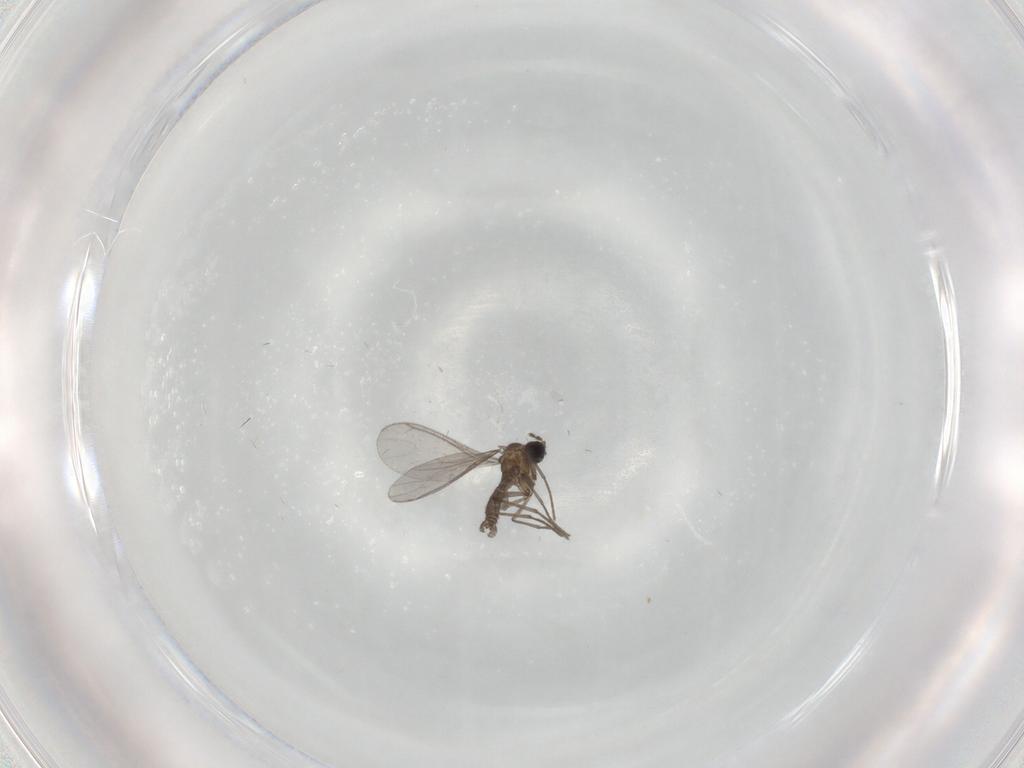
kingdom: Animalia
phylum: Arthropoda
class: Insecta
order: Diptera
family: Sciaridae
